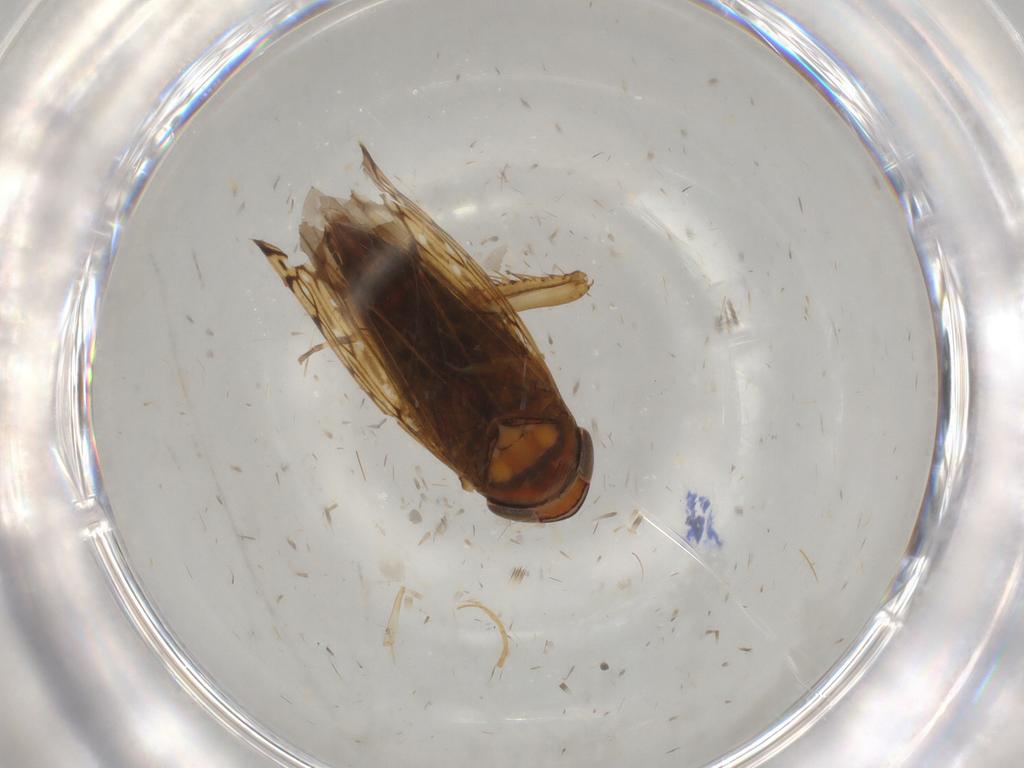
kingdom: Animalia
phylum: Arthropoda
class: Insecta
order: Hemiptera
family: Cicadellidae
